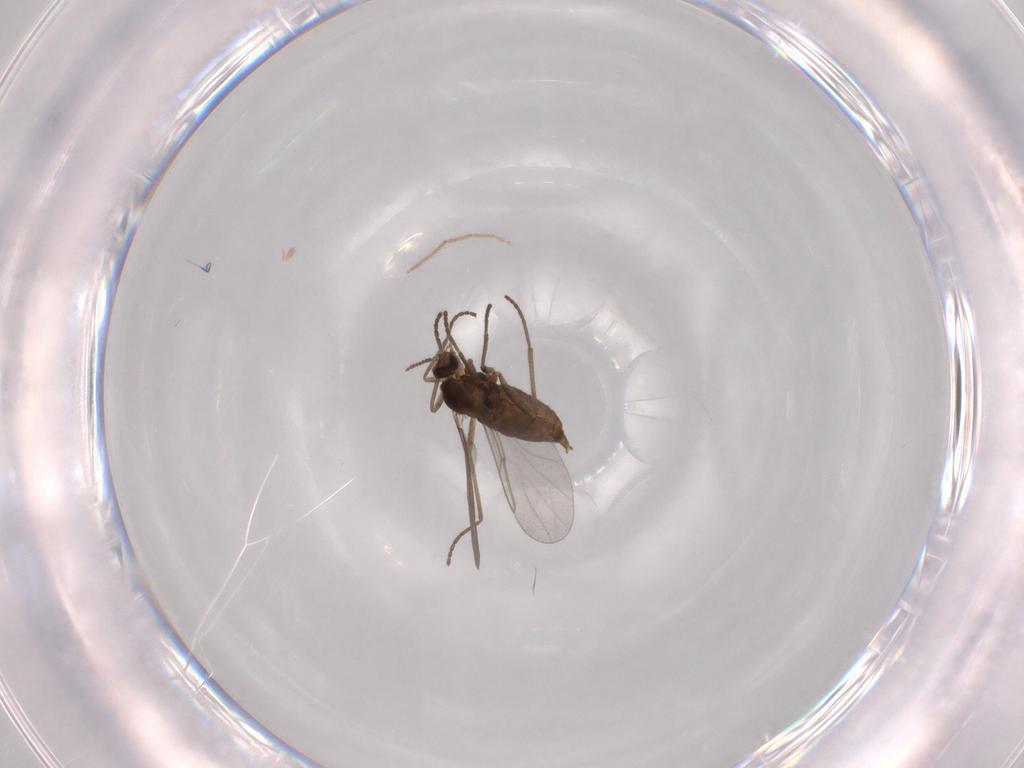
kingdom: Animalia
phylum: Arthropoda
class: Insecta
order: Diptera
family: Cecidomyiidae
